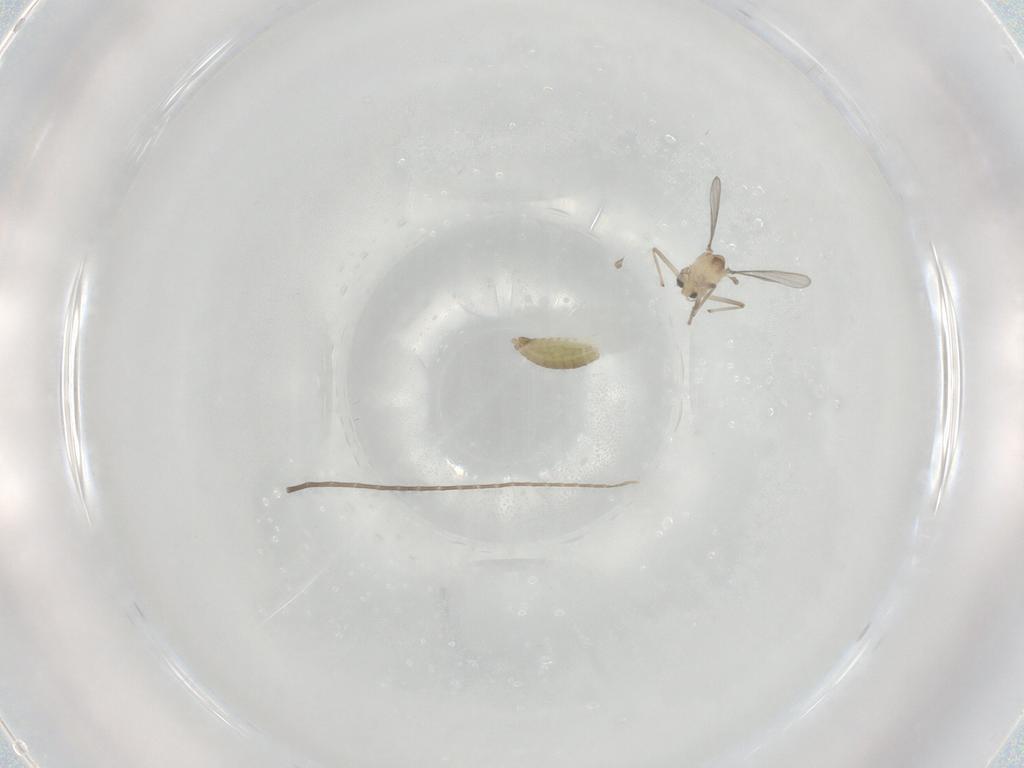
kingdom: Animalia
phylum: Arthropoda
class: Insecta
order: Diptera
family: Chironomidae
